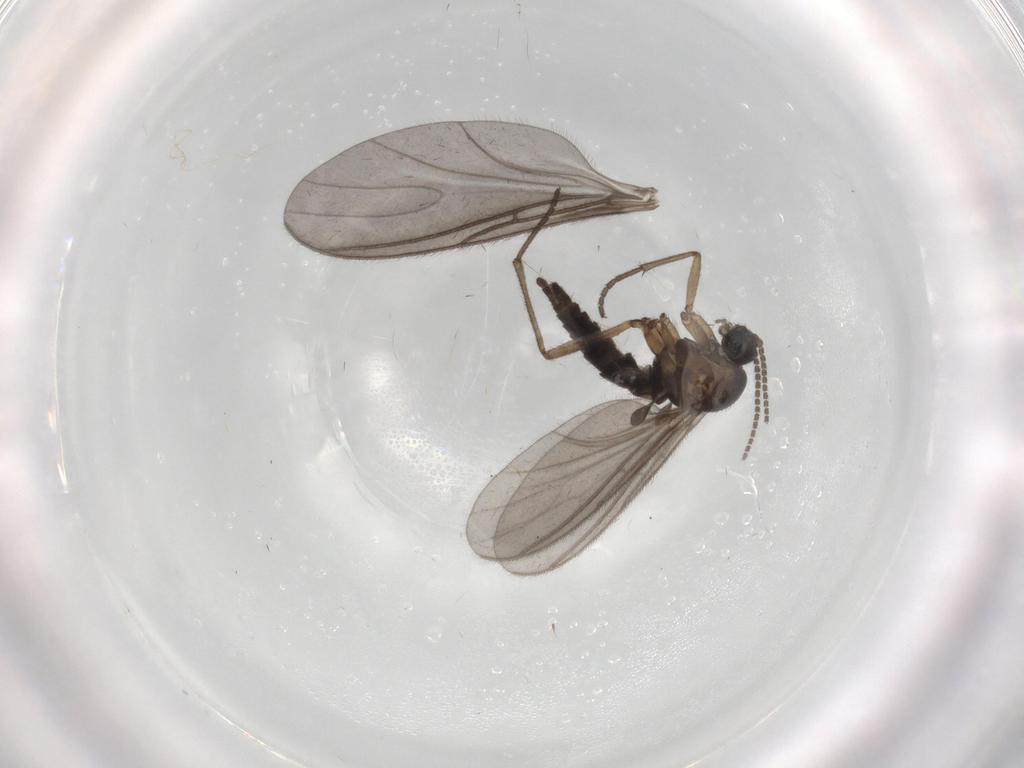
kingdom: Animalia
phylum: Arthropoda
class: Insecta
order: Diptera
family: Sciaridae
